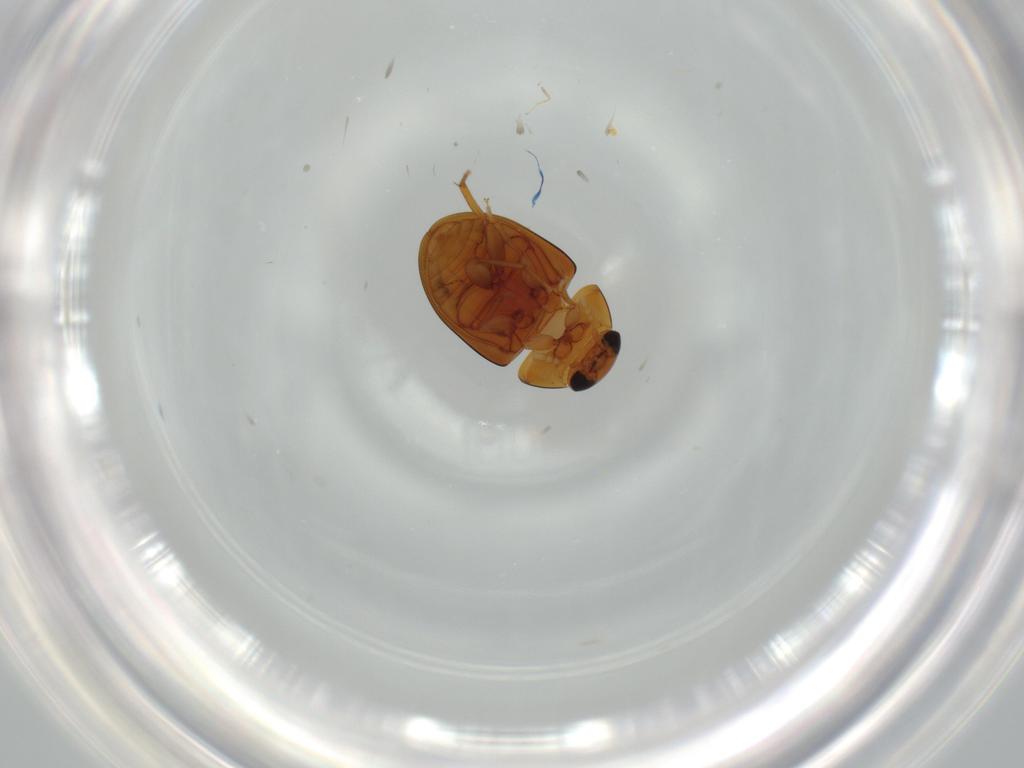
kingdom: Animalia
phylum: Arthropoda
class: Insecta
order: Coleoptera
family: Phalacridae
